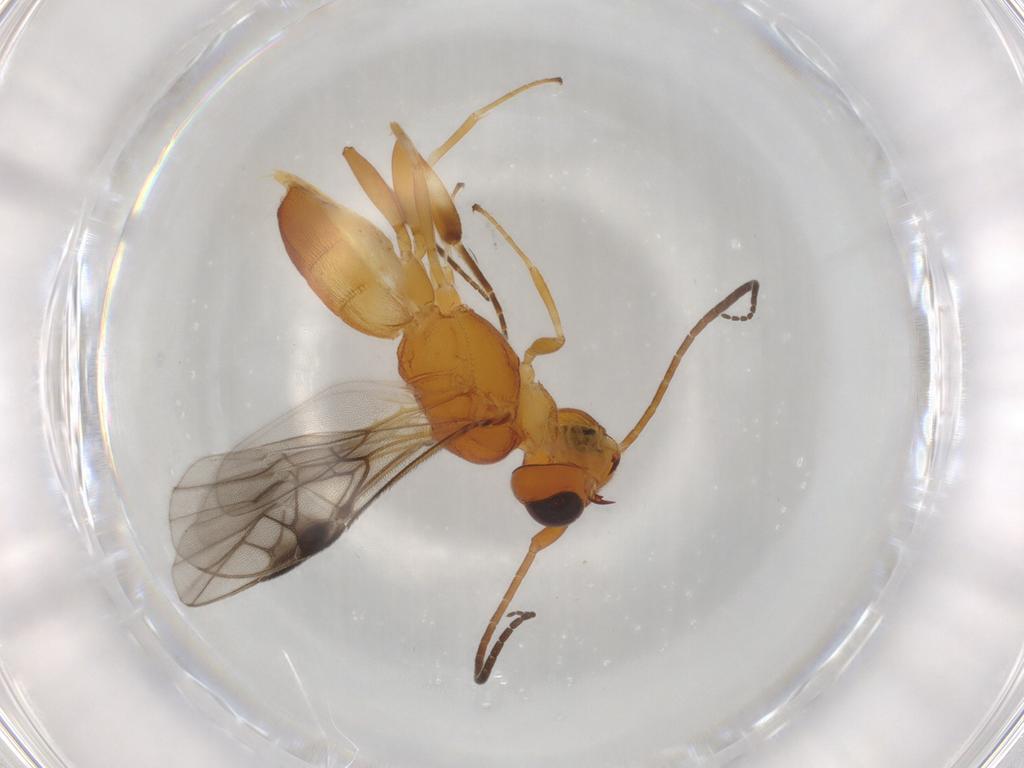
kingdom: Animalia
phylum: Arthropoda
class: Insecta
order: Hymenoptera
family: Braconidae
